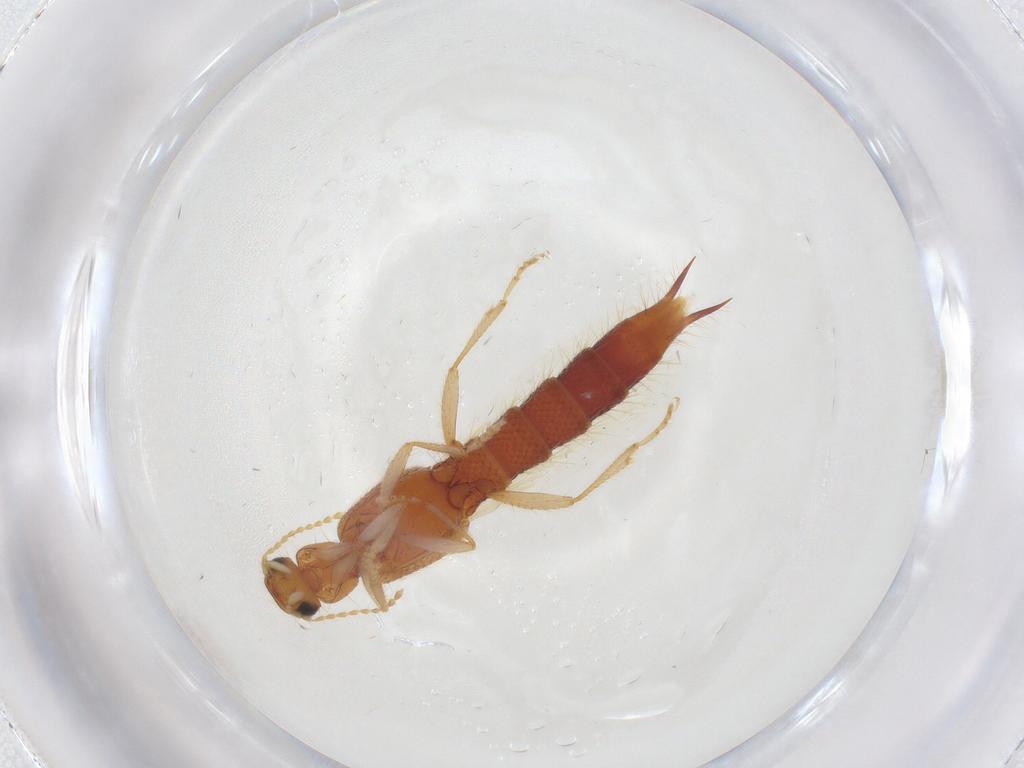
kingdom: Animalia
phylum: Arthropoda
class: Insecta
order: Coleoptera
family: Staphylinidae
